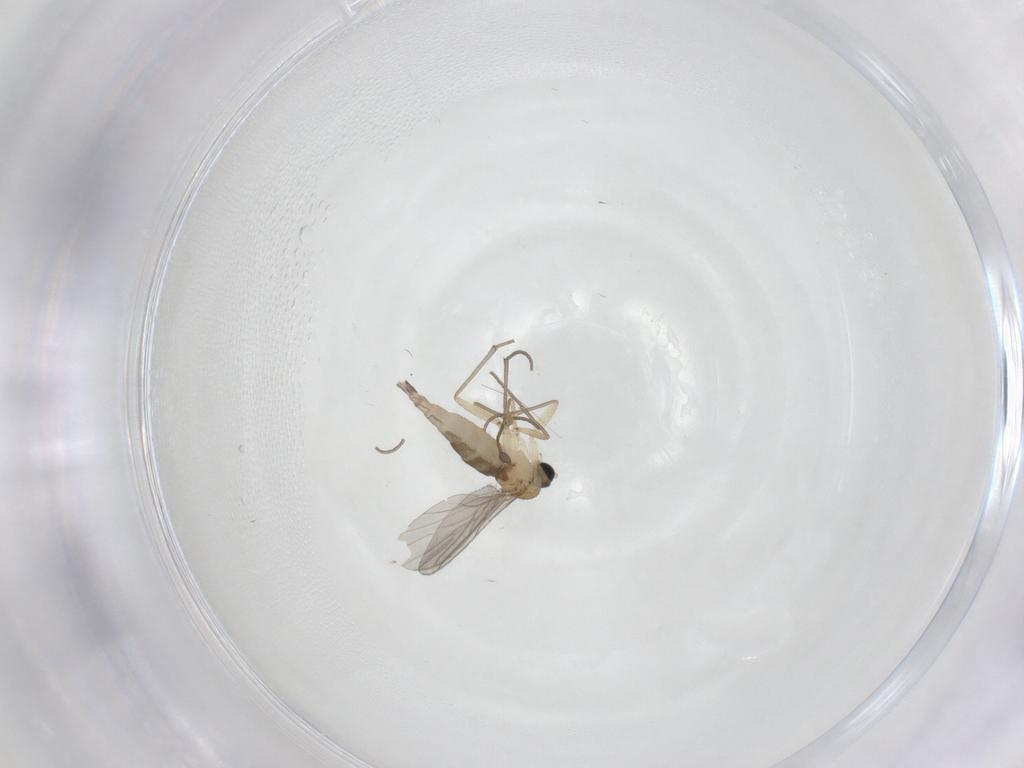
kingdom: Animalia
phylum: Arthropoda
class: Insecta
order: Diptera
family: Sciaridae
